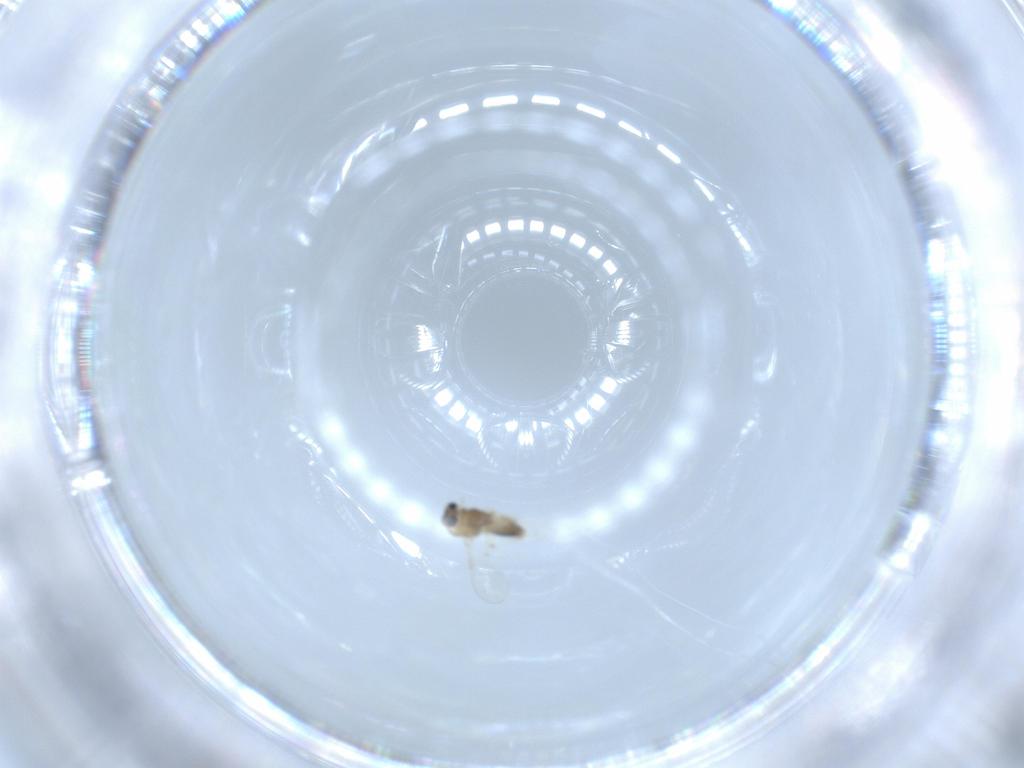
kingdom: Animalia
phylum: Arthropoda
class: Insecta
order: Diptera
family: Chironomidae
